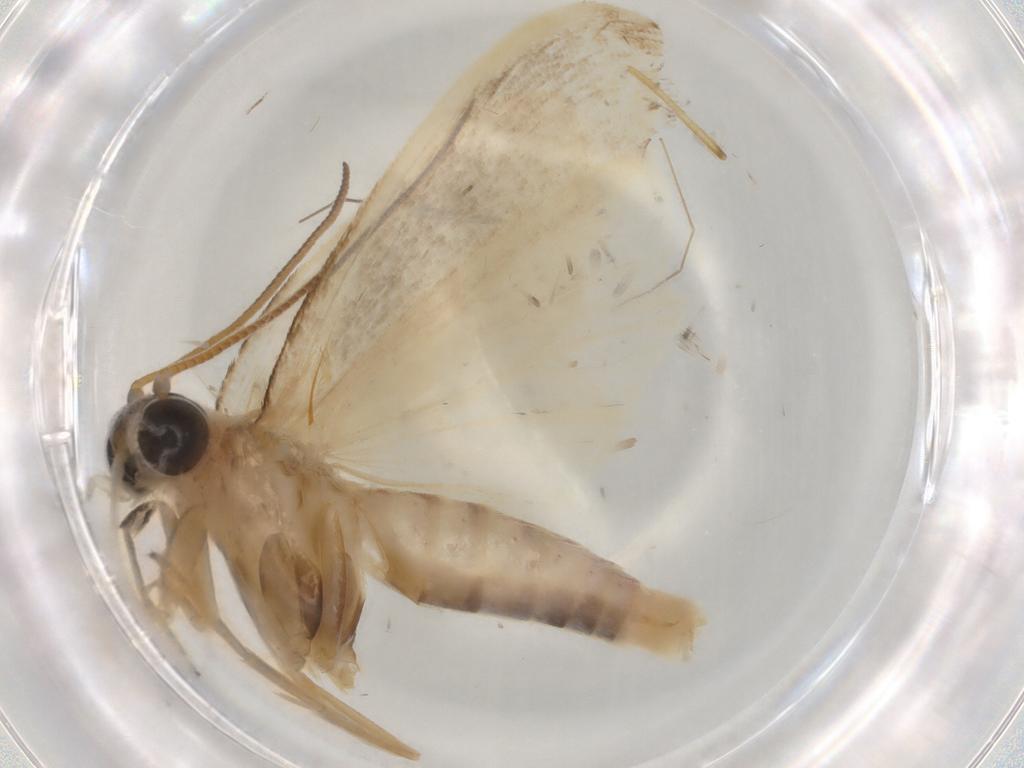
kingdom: Animalia
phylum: Arthropoda
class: Insecta
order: Lepidoptera
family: Crambidae
